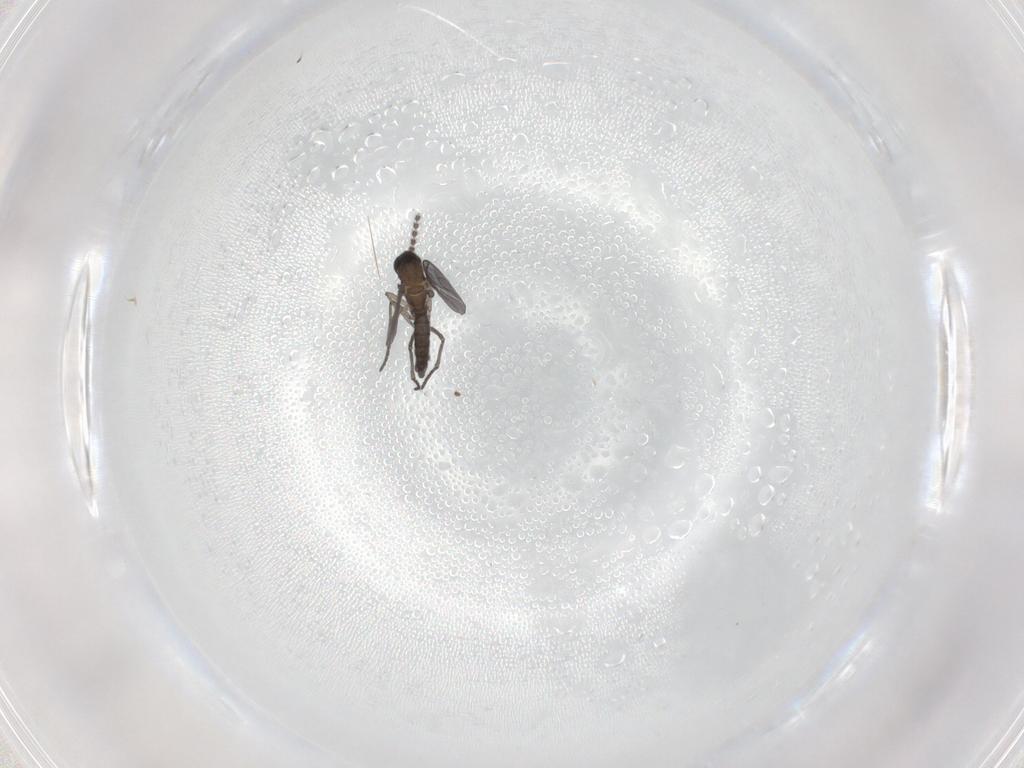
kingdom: Animalia
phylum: Arthropoda
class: Insecta
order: Diptera
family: Sciaridae
